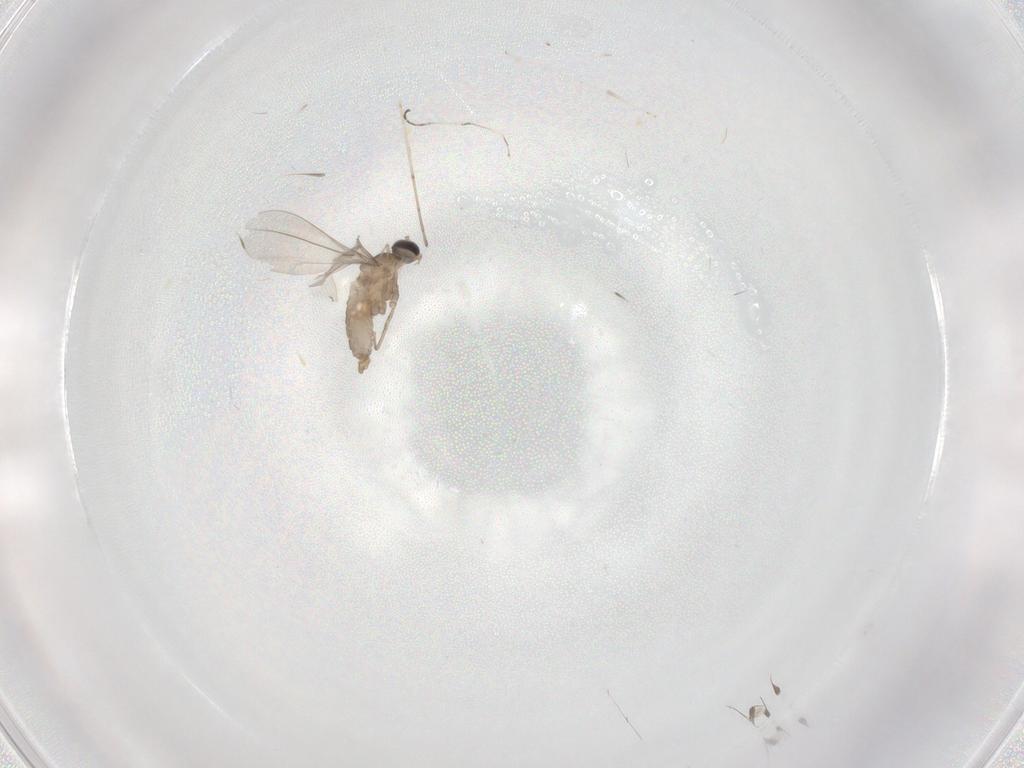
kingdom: Animalia
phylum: Arthropoda
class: Insecta
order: Diptera
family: Cecidomyiidae
